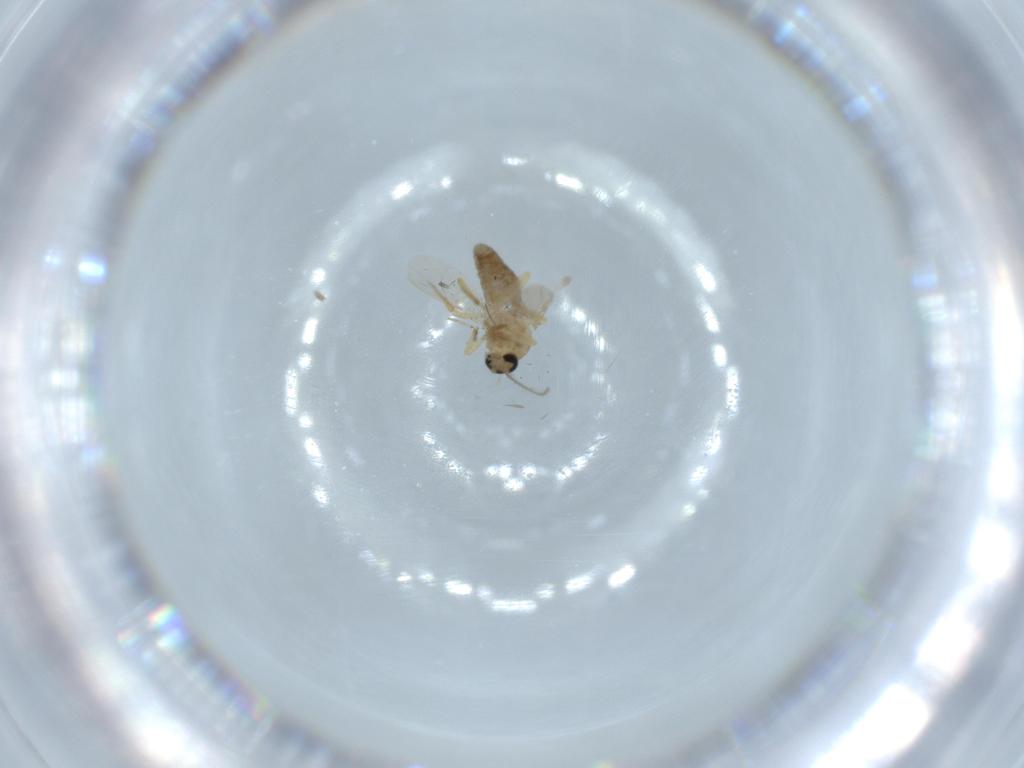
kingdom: Animalia
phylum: Arthropoda
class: Insecta
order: Diptera
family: Ceratopogonidae
